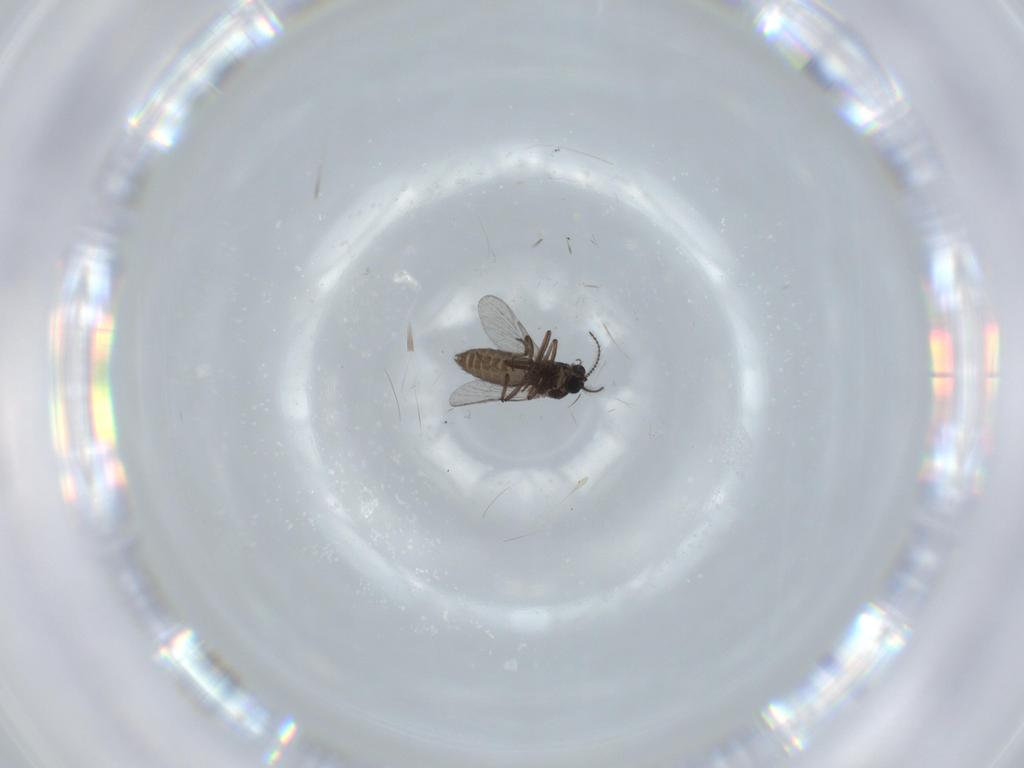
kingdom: Animalia
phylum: Arthropoda
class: Insecta
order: Diptera
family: Ceratopogonidae
